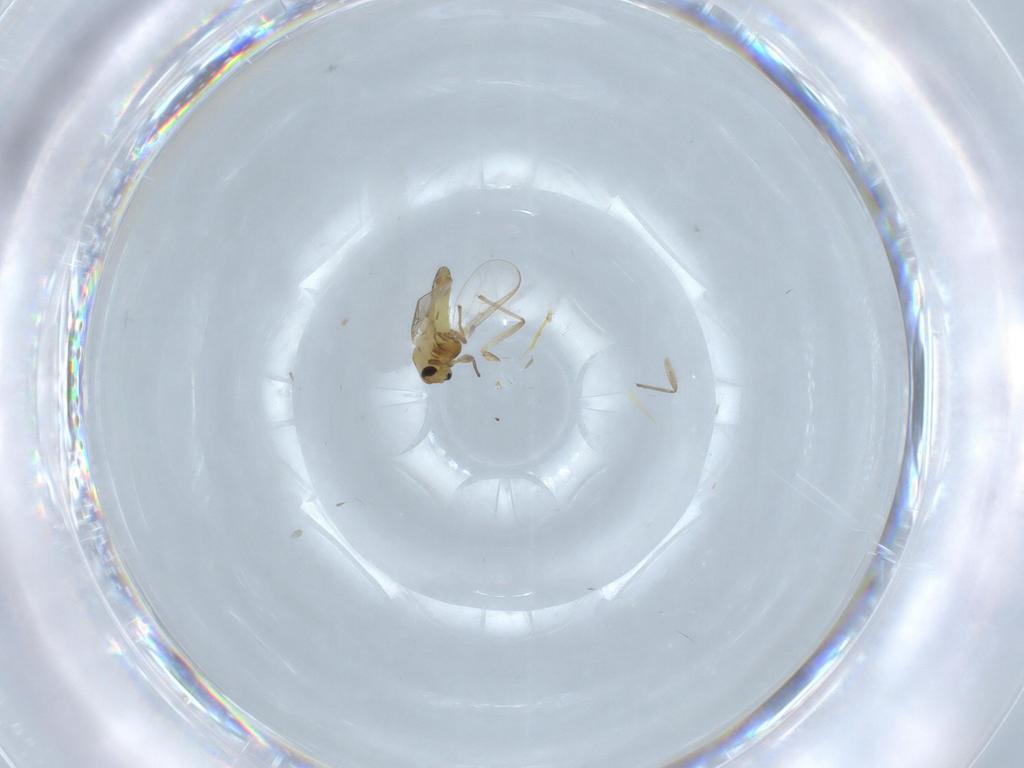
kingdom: Animalia
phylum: Arthropoda
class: Insecta
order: Diptera
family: Chironomidae
